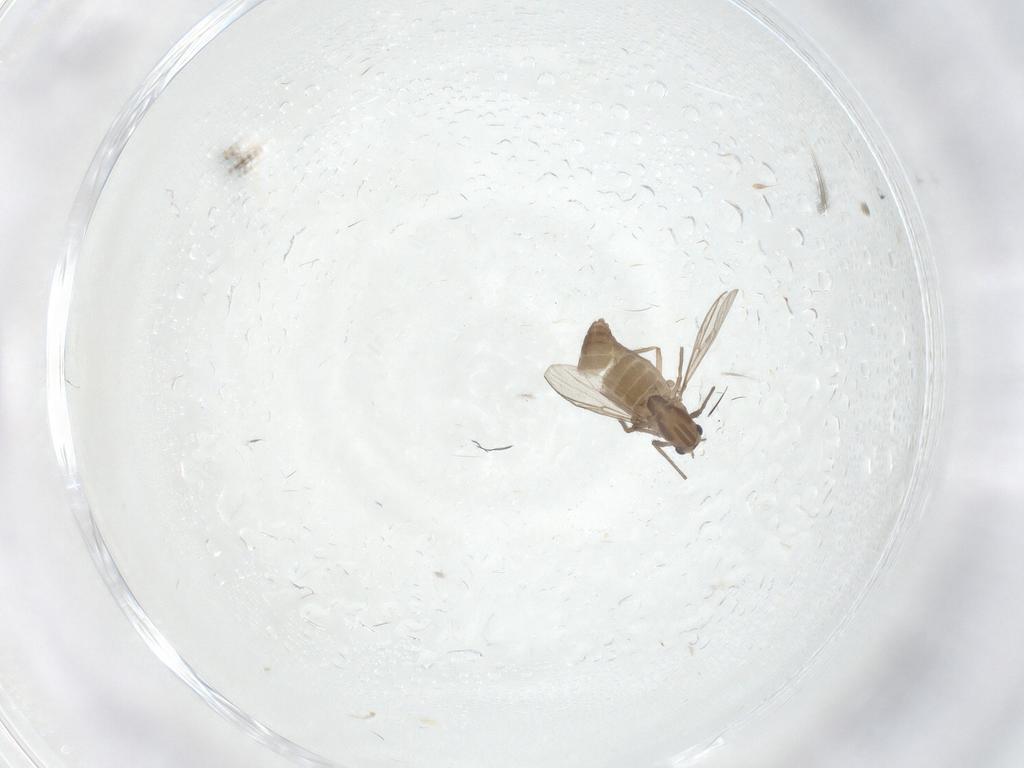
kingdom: Animalia
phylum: Arthropoda
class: Insecta
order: Diptera
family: Chironomidae
